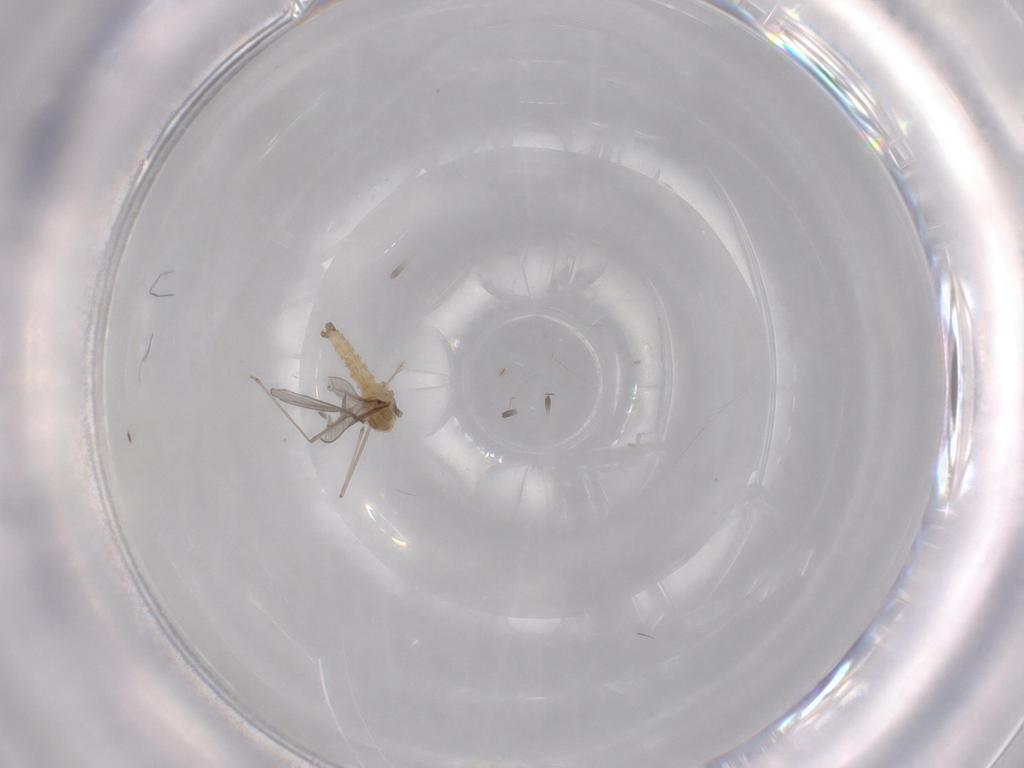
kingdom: Animalia
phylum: Arthropoda
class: Insecta
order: Diptera
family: Cecidomyiidae
